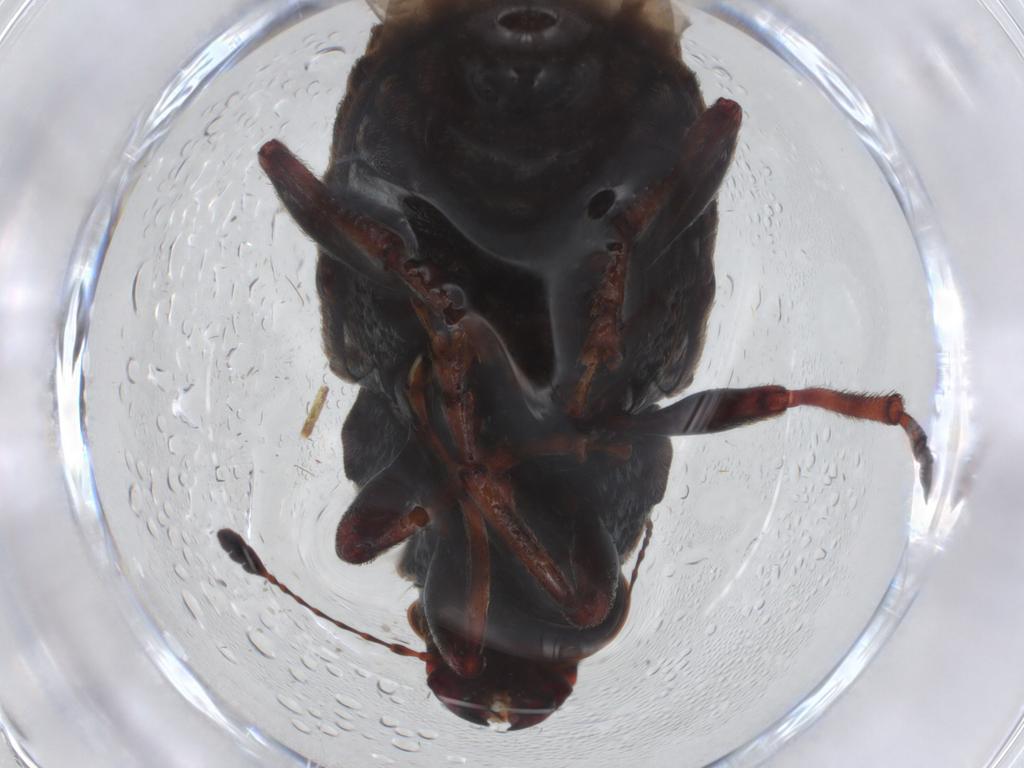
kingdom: Animalia
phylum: Arthropoda
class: Insecta
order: Coleoptera
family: Anthribidae
